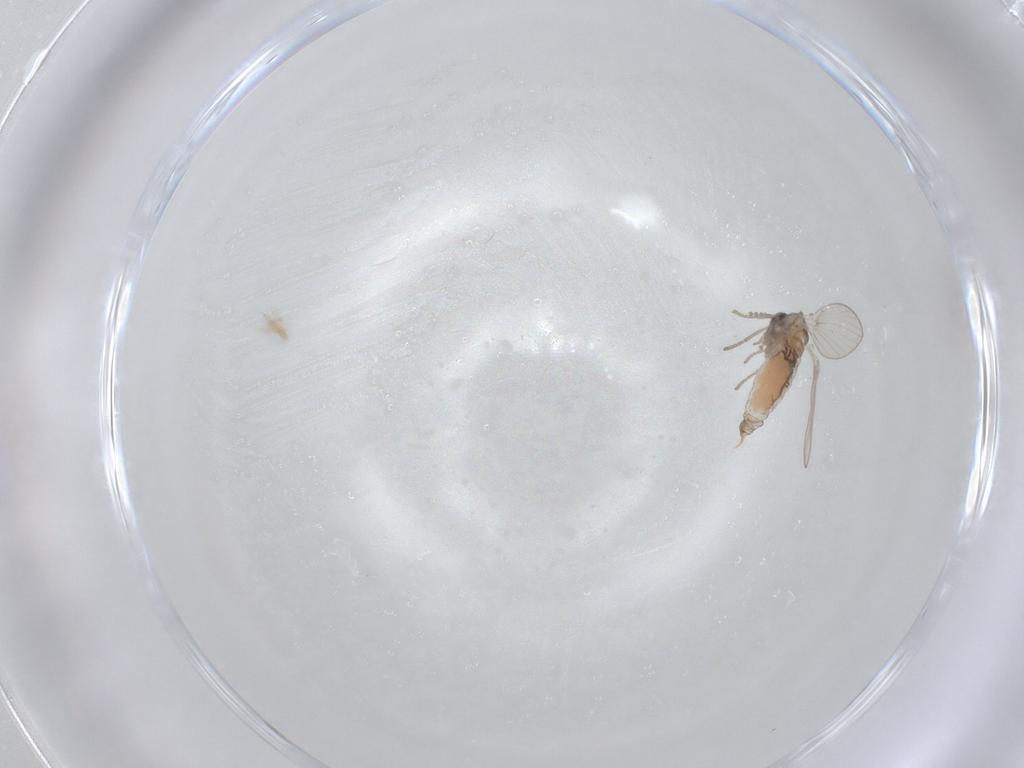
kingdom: Animalia
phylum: Arthropoda
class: Insecta
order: Diptera
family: Psychodidae
